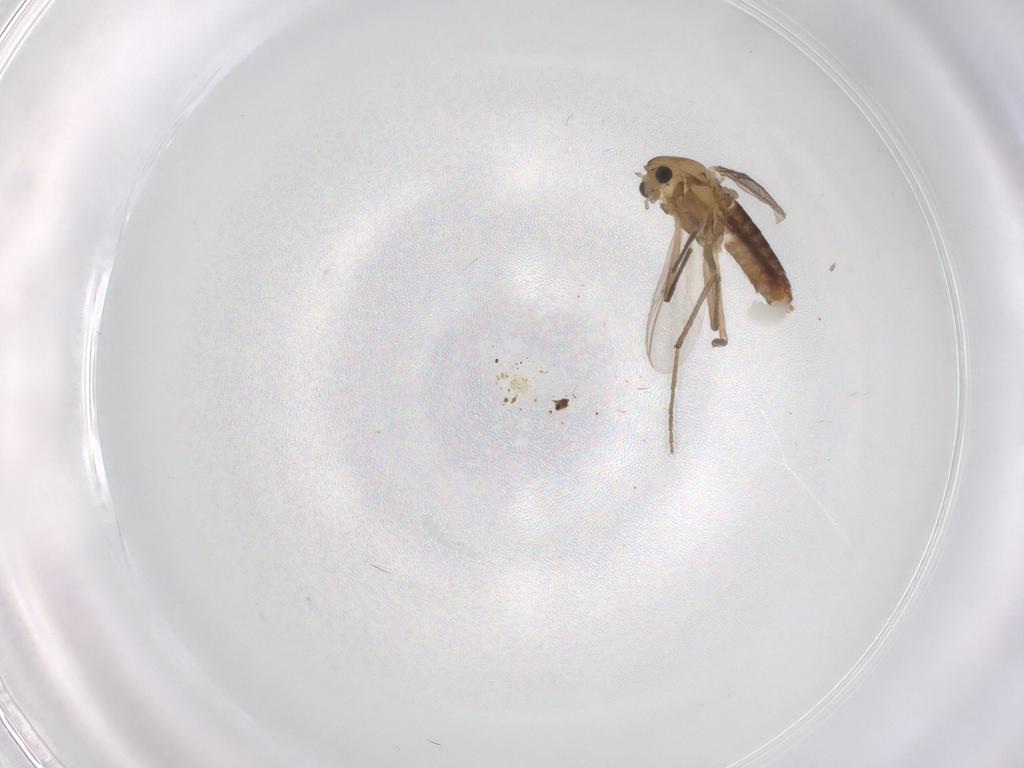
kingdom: Animalia
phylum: Arthropoda
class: Insecta
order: Diptera
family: Chironomidae
